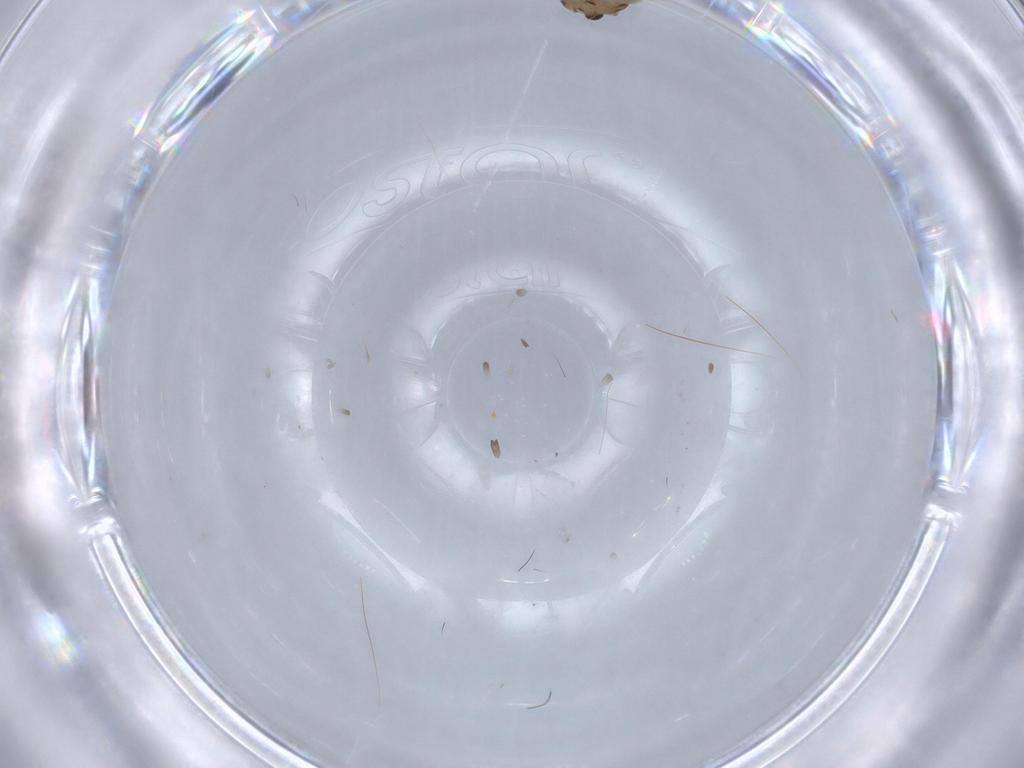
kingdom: Animalia
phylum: Arthropoda
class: Insecta
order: Diptera
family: Chironomidae
